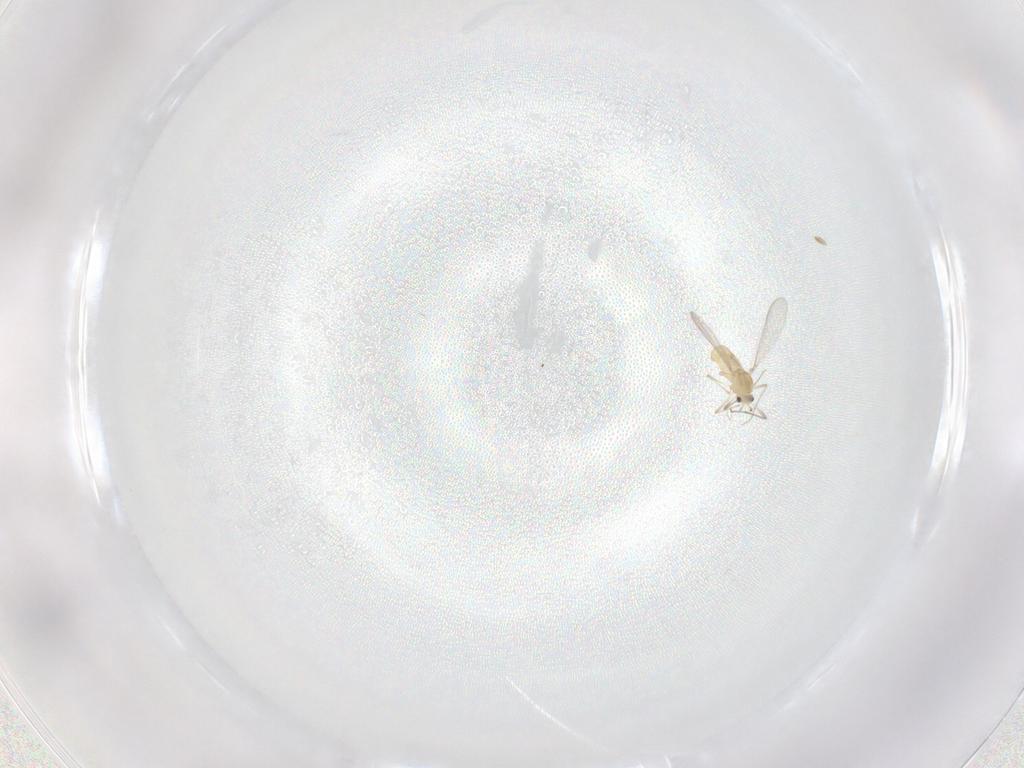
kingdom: Animalia
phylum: Arthropoda
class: Insecta
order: Diptera
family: Chironomidae
